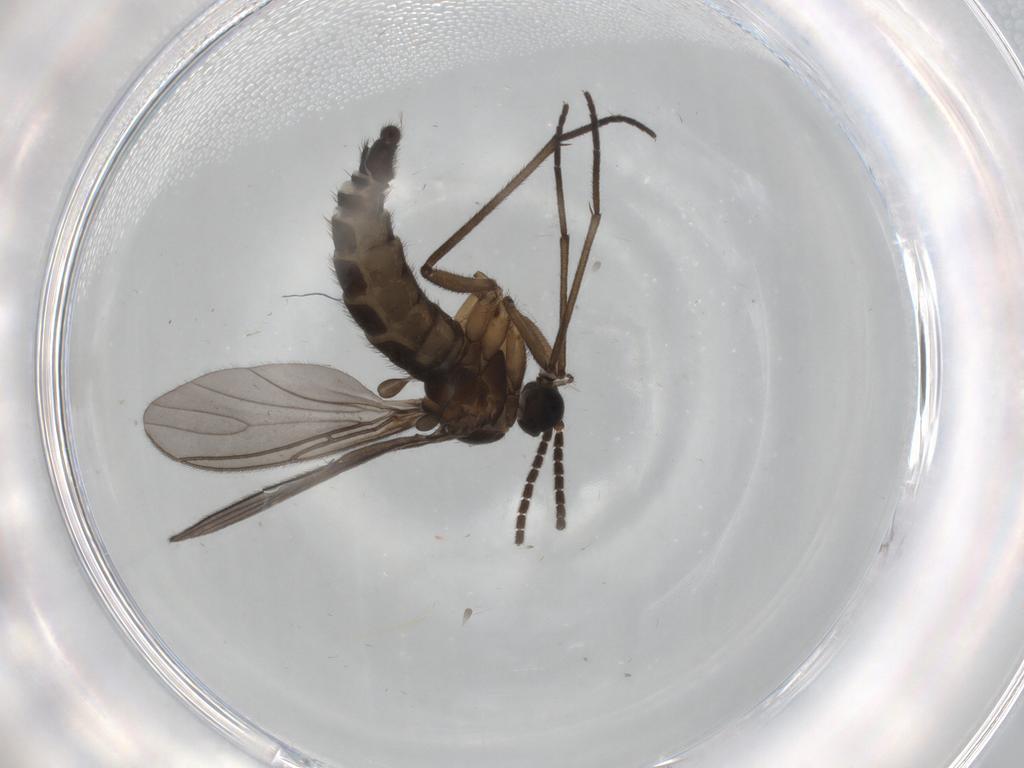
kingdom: Animalia
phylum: Arthropoda
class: Insecta
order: Diptera
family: Sciaridae
